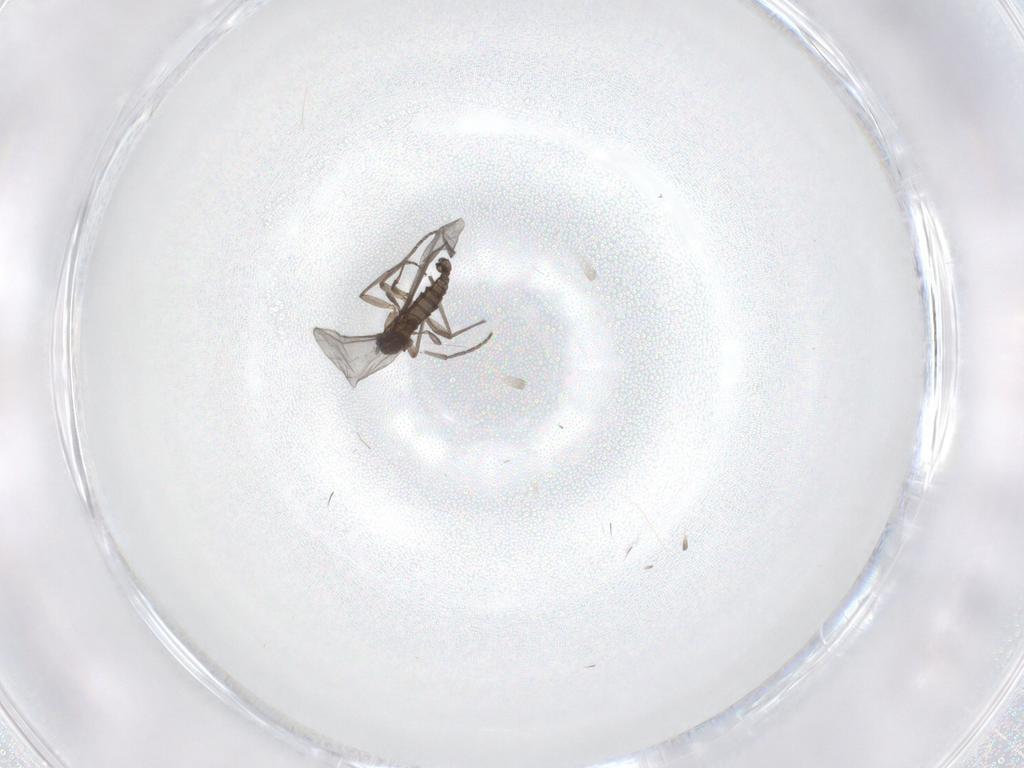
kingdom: Animalia
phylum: Arthropoda
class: Insecta
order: Diptera
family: Sciaridae
